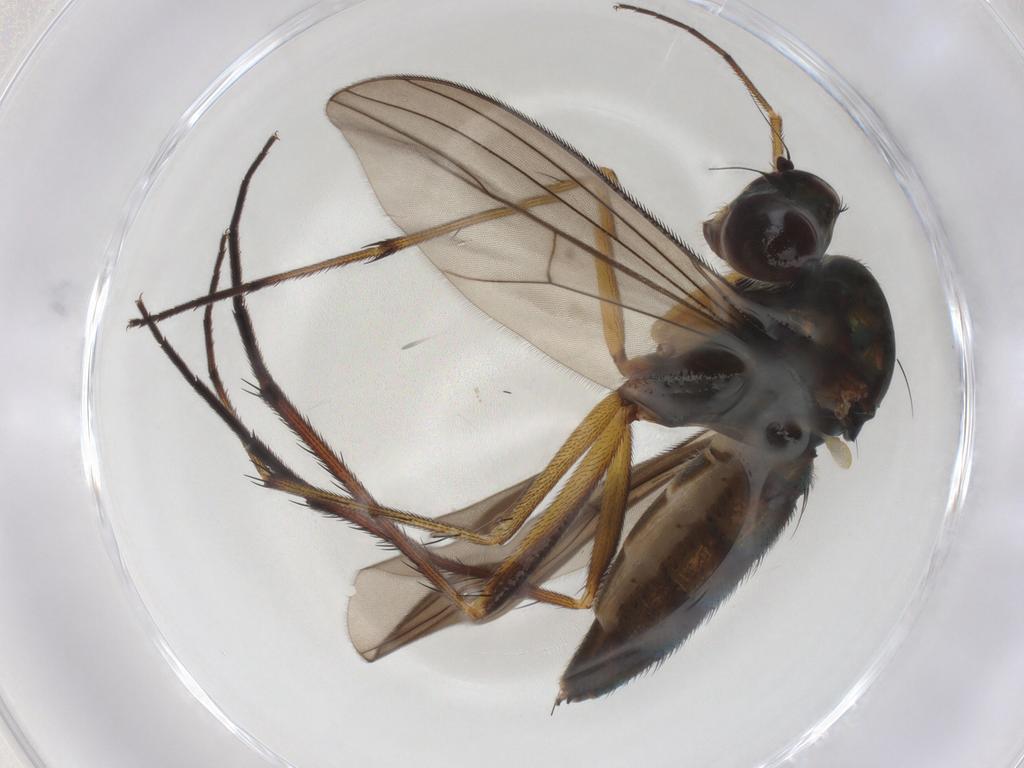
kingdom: Animalia
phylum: Arthropoda
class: Insecta
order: Diptera
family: Dolichopodidae
